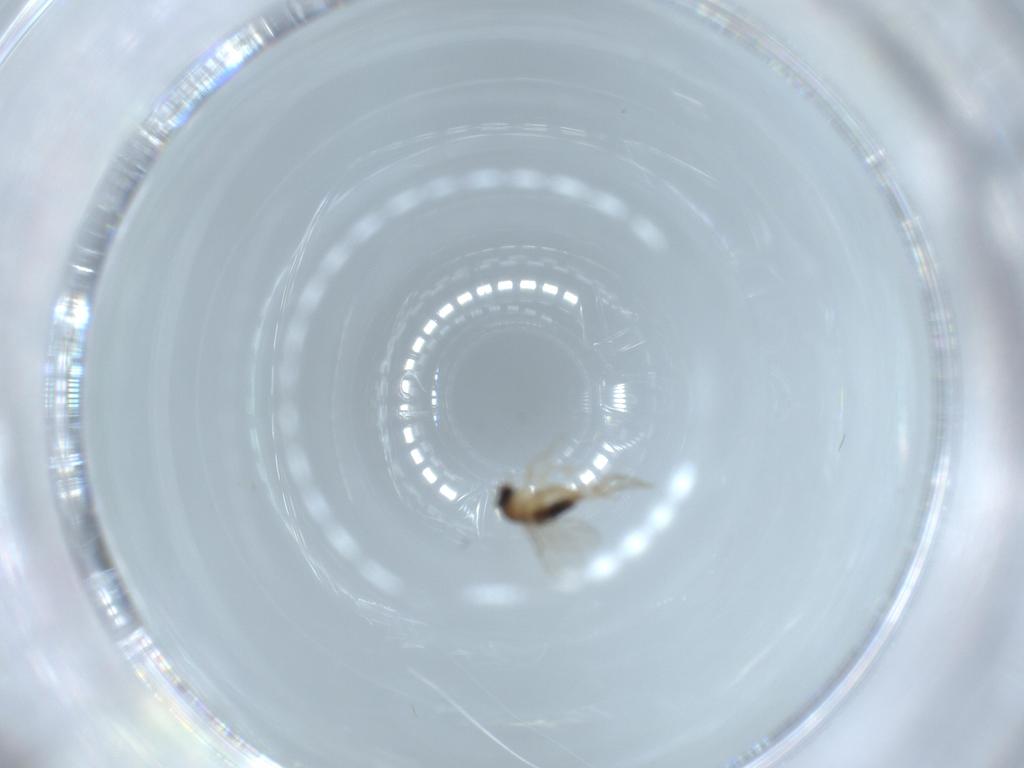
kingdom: Animalia
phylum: Arthropoda
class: Insecta
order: Diptera
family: Phoridae
